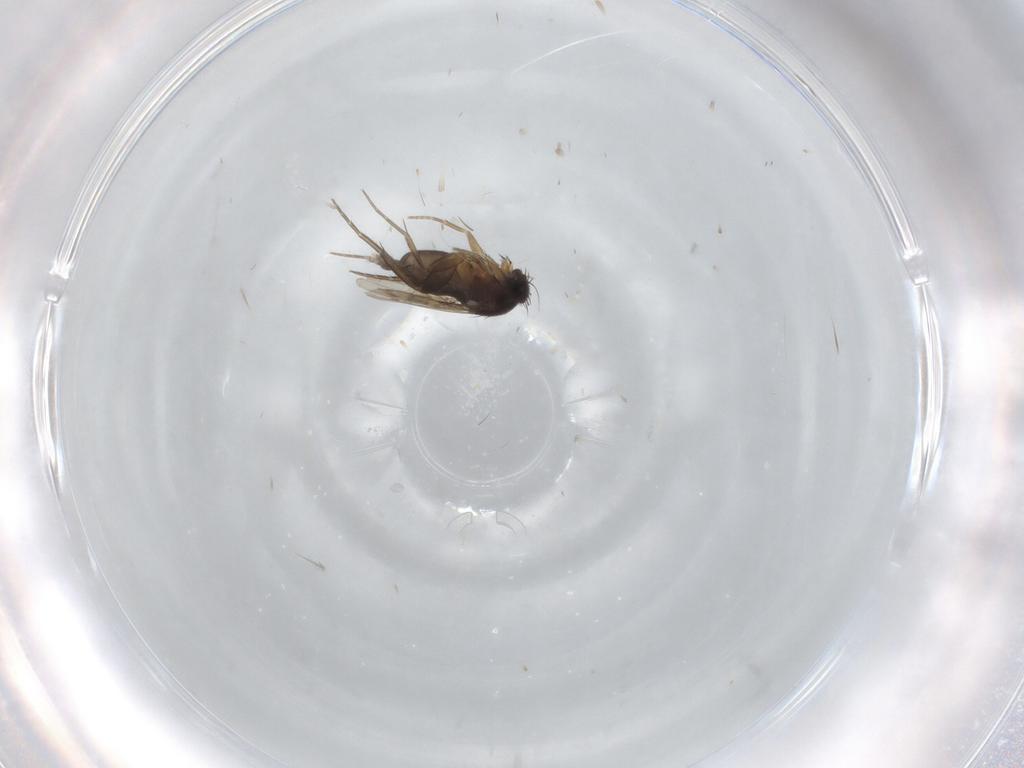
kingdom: Animalia
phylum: Arthropoda
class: Insecta
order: Diptera
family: Phoridae
